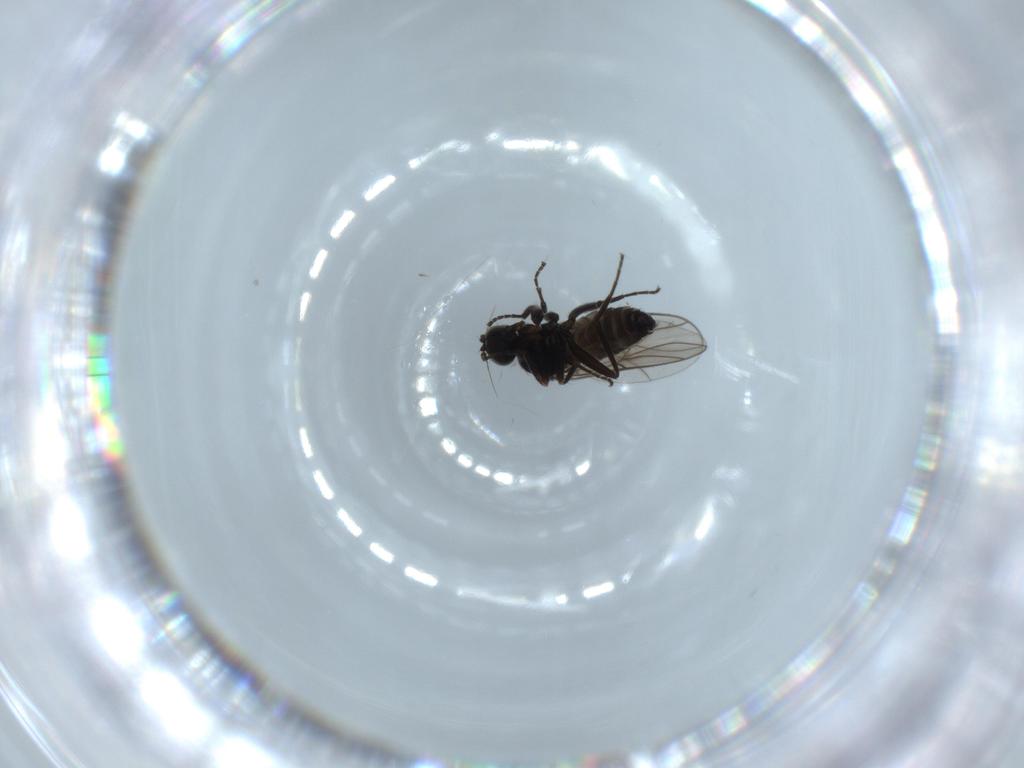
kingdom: Animalia
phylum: Arthropoda
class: Insecta
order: Diptera
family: Hybotidae
